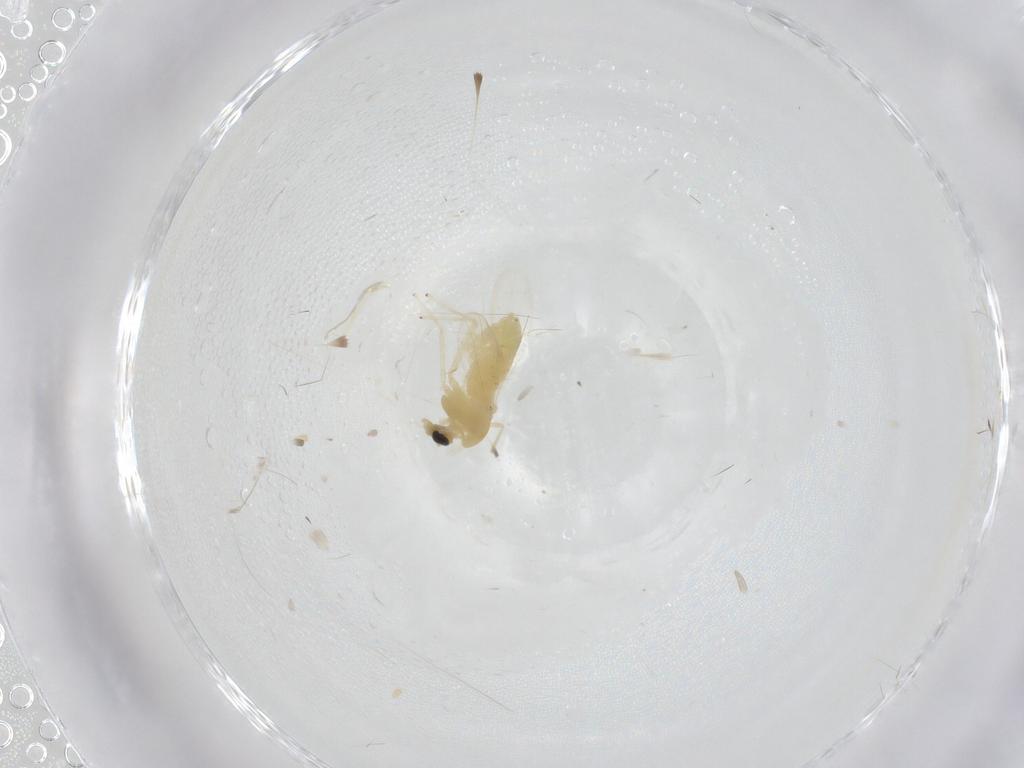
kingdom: Animalia
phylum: Arthropoda
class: Insecta
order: Diptera
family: Chironomidae
